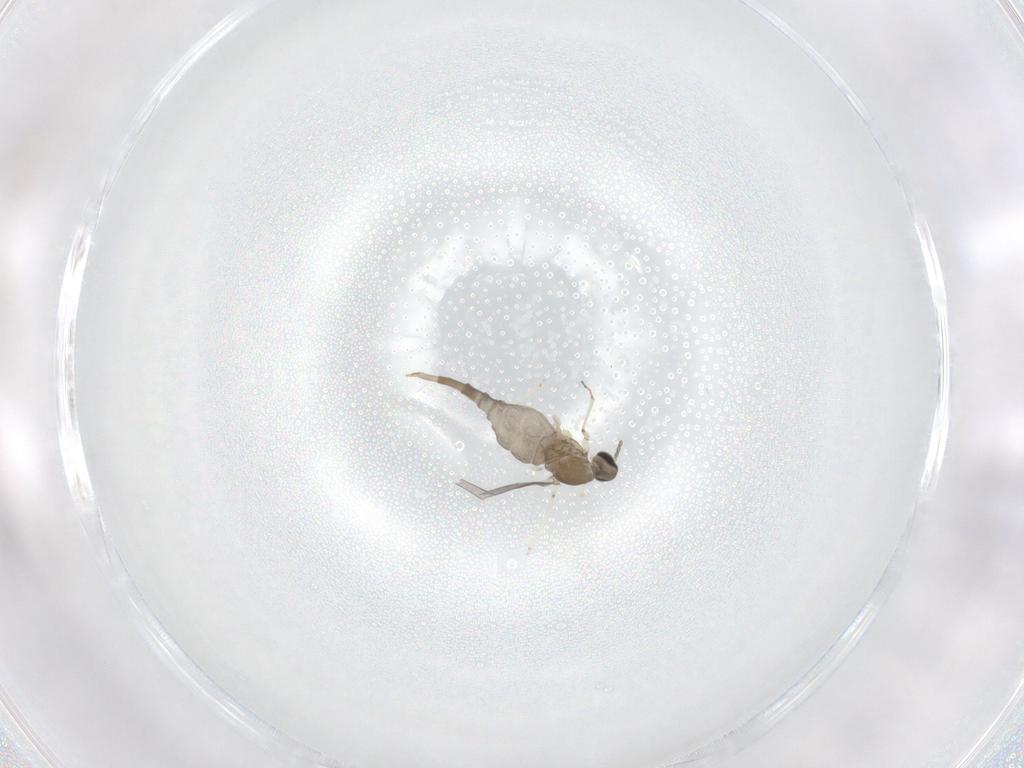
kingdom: Animalia
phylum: Arthropoda
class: Insecta
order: Diptera
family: Cecidomyiidae
